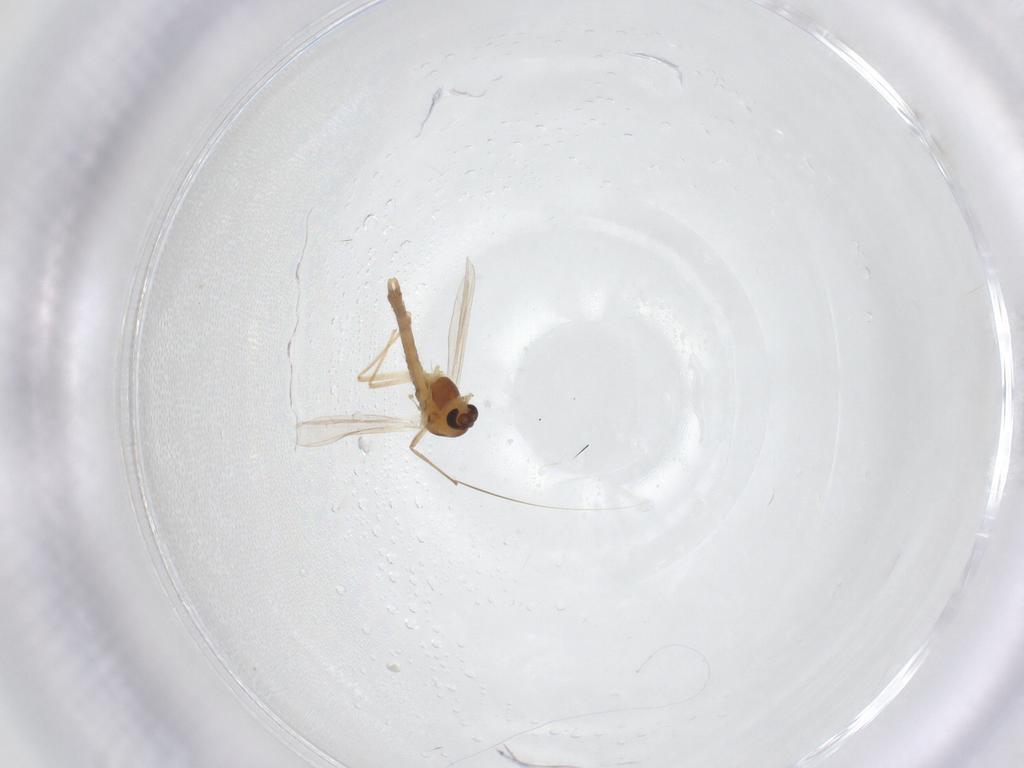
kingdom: Animalia
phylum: Arthropoda
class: Insecta
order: Diptera
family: Chironomidae
